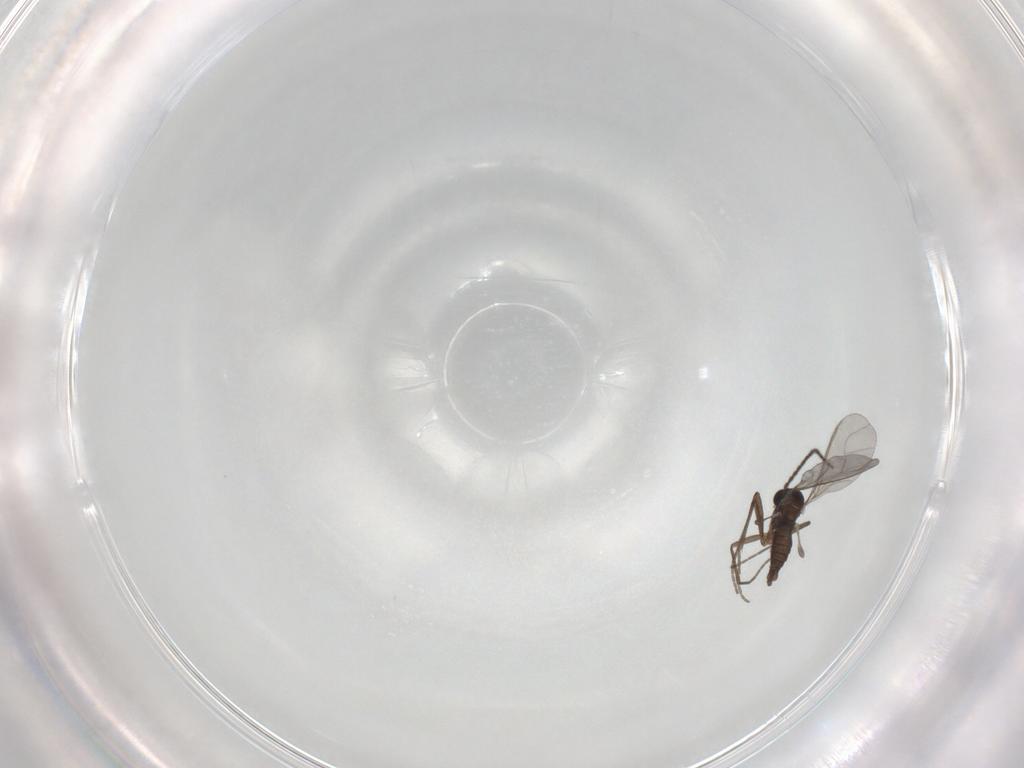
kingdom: Animalia
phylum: Arthropoda
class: Insecta
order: Diptera
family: Sciaridae
